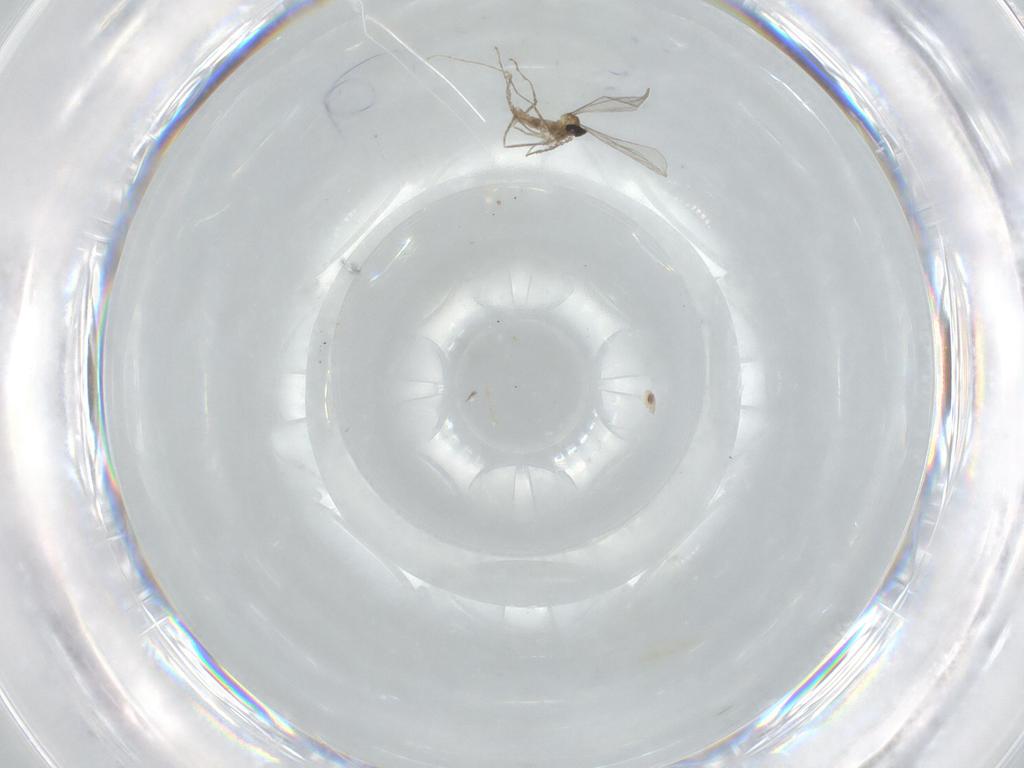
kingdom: Animalia
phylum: Arthropoda
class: Insecta
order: Diptera
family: Cecidomyiidae
